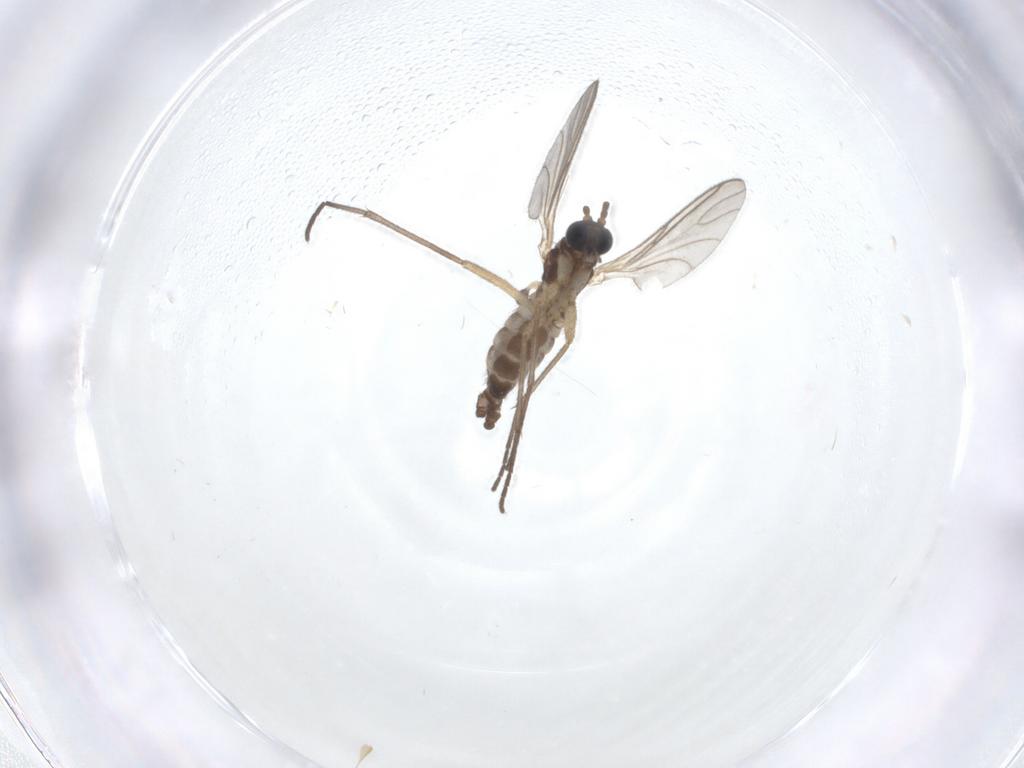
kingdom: Animalia
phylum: Arthropoda
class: Insecta
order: Diptera
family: Sciaridae
